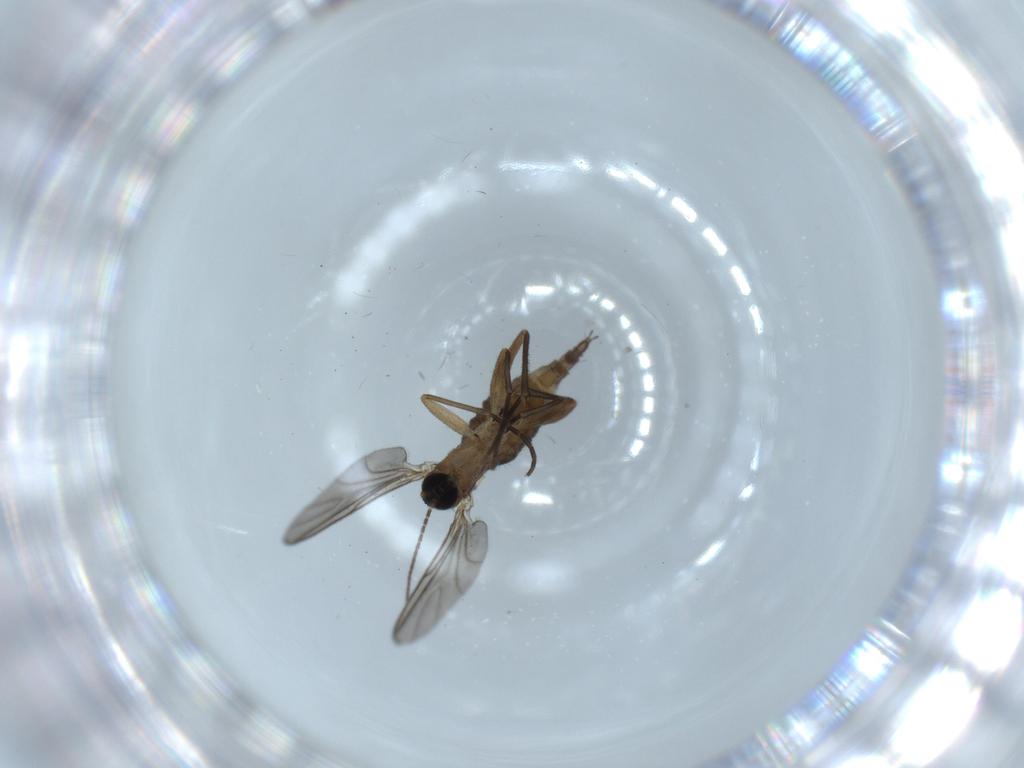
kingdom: Animalia
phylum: Arthropoda
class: Insecta
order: Diptera
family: Sciaridae
